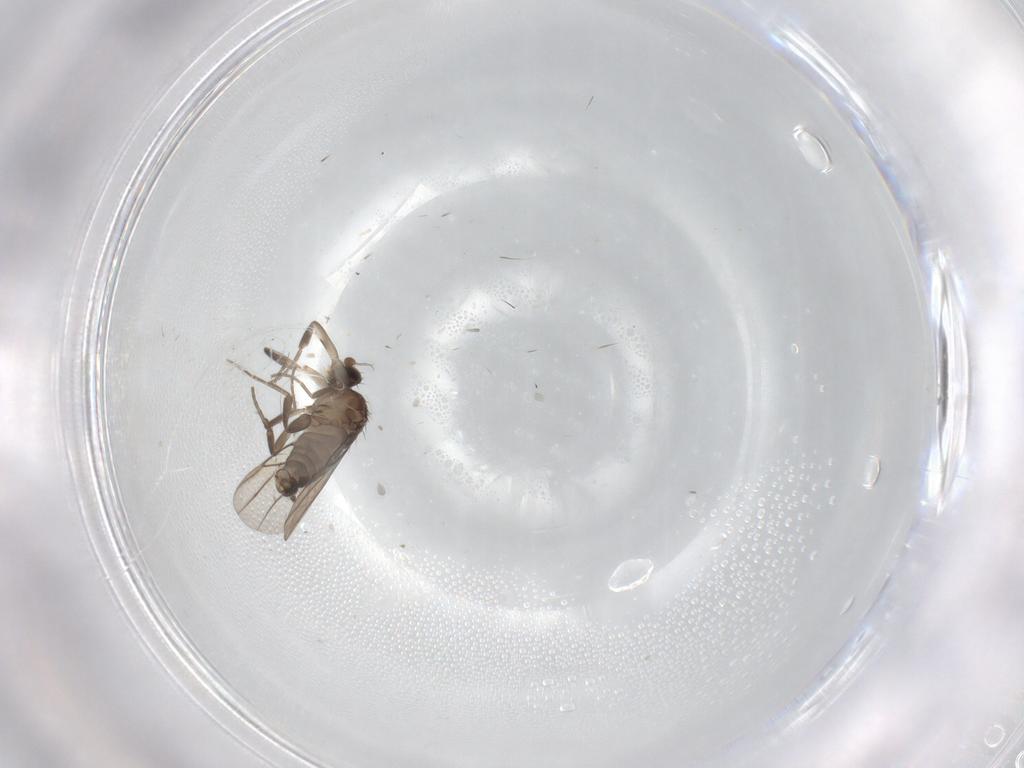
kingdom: Animalia
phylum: Arthropoda
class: Insecta
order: Diptera
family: Phoridae
